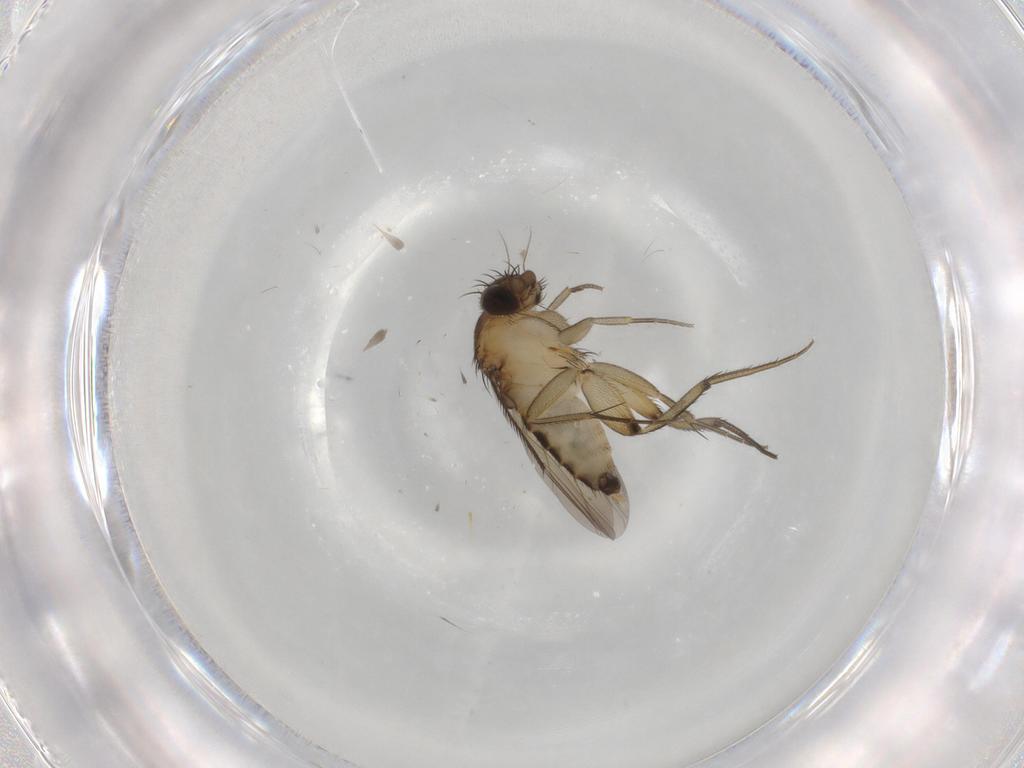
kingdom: Animalia
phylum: Arthropoda
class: Insecta
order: Diptera
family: Phoridae
